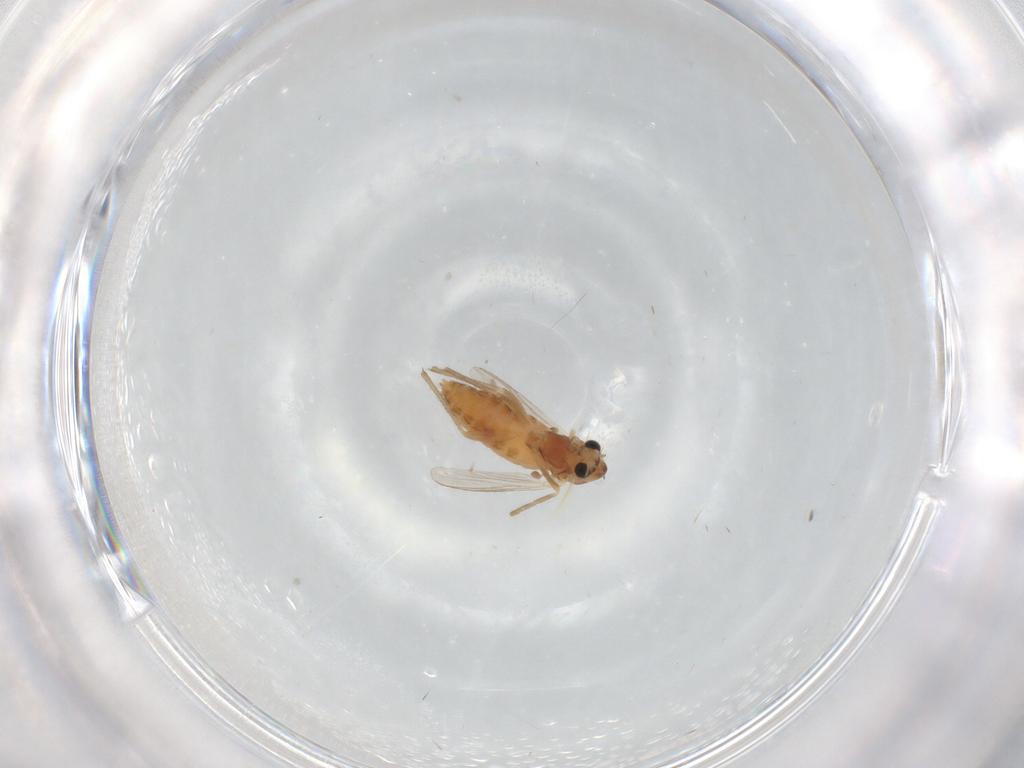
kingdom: Animalia
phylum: Arthropoda
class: Insecta
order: Diptera
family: Chironomidae
